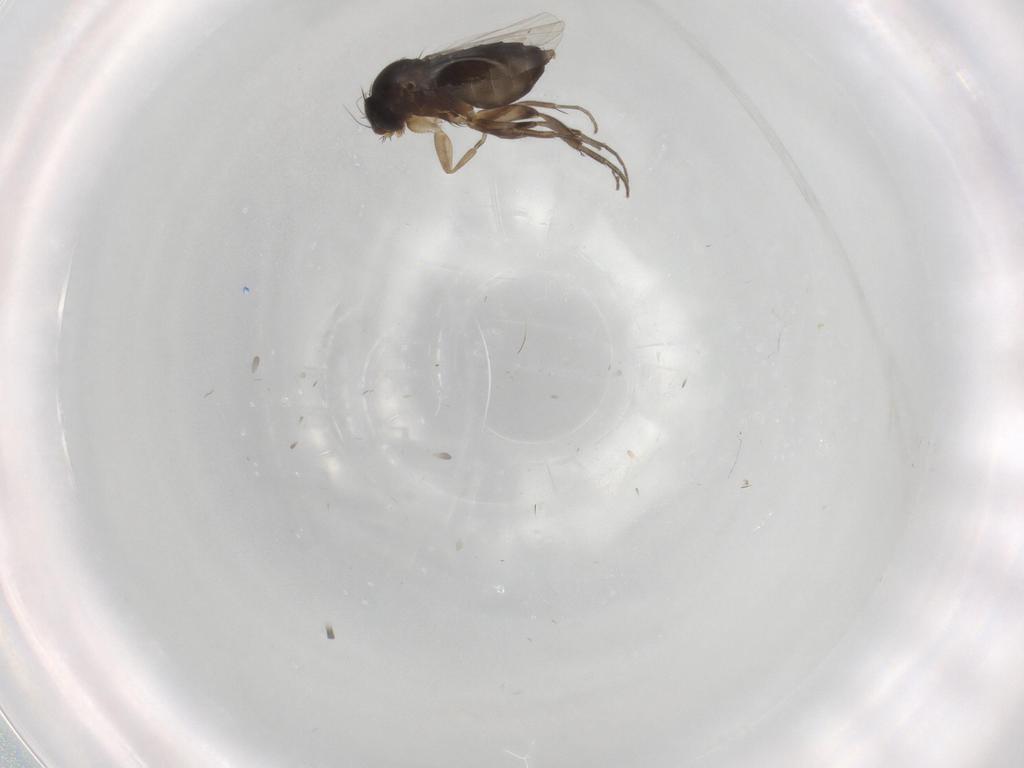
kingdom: Animalia
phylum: Arthropoda
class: Insecta
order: Diptera
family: Phoridae
